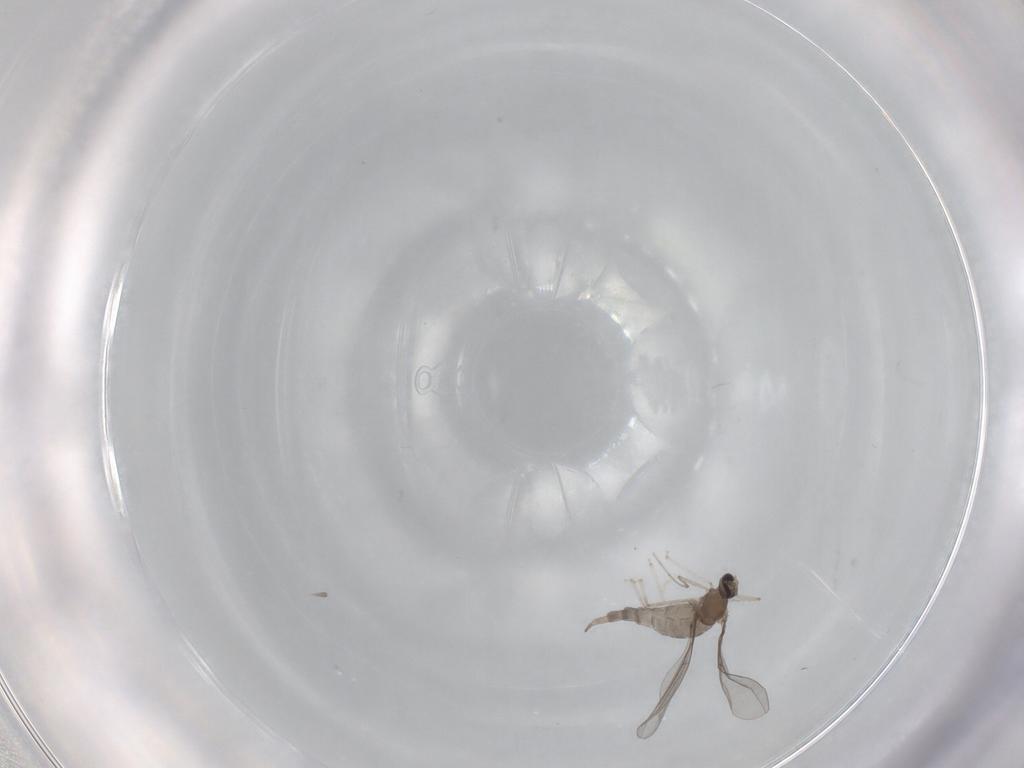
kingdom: Animalia
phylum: Arthropoda
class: Insecta
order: Diptera
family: Cecidomyiidae
